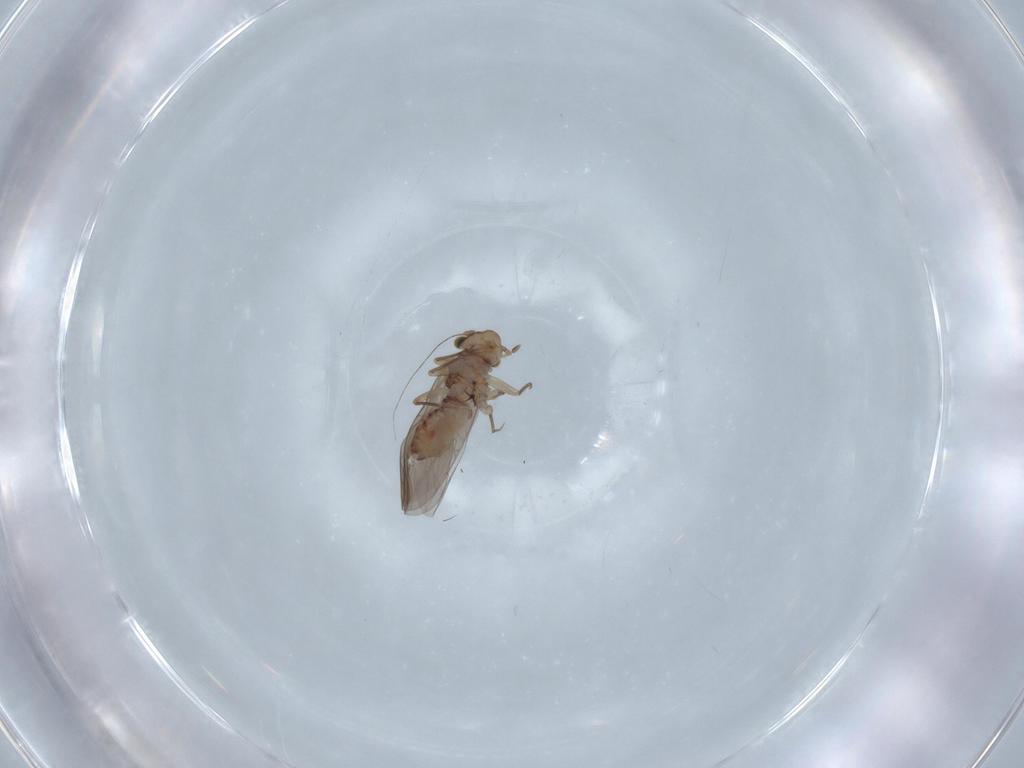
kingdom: Animalia
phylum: Arthropoda
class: Insecta
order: Psocodea
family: Lepidopsocidae
